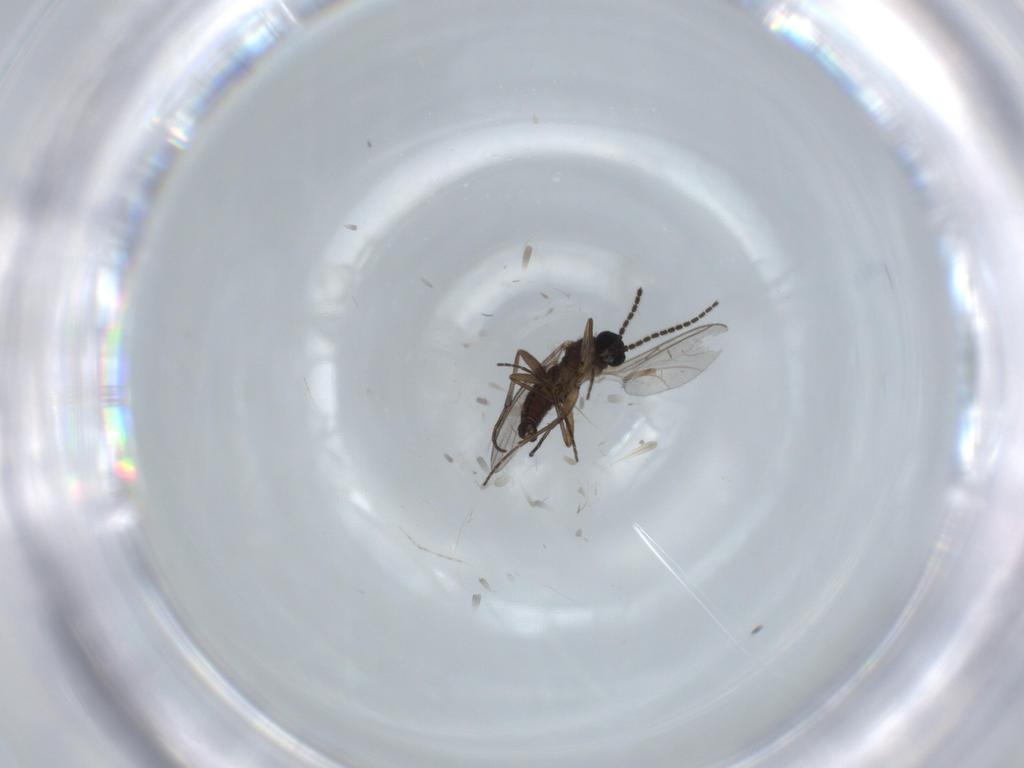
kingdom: Animalia
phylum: Arthropoda
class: Insecta
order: Diptera
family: Sciaridae
